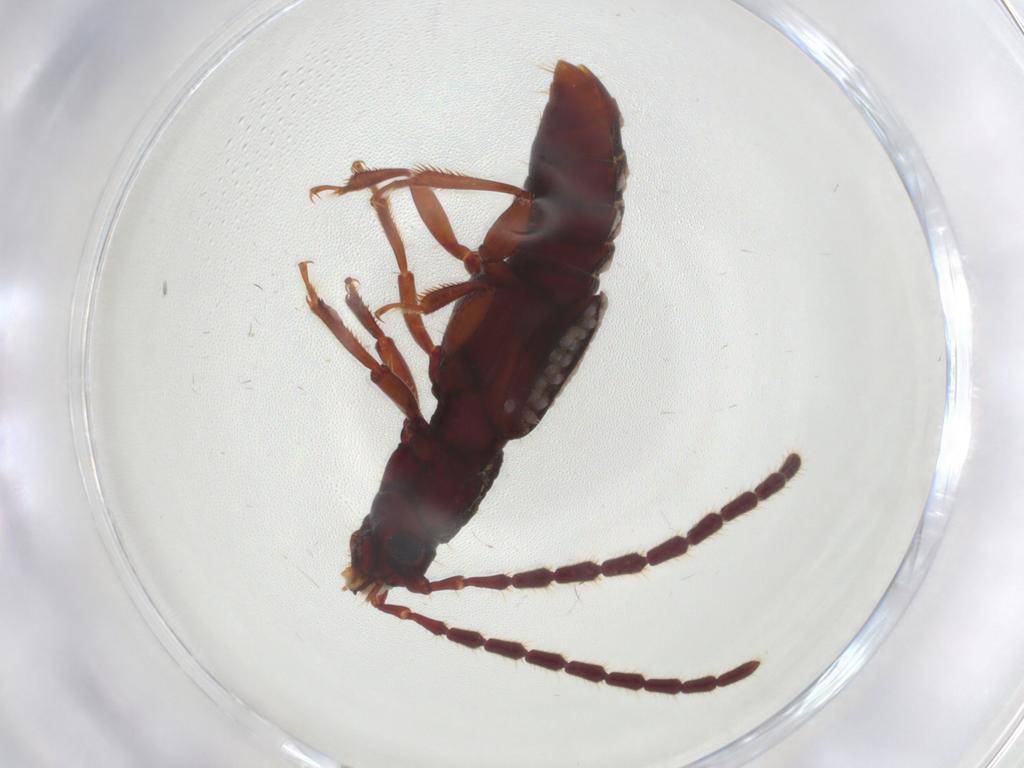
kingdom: Animalia
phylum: Arthropoda
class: Insecta
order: Coleoptera
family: Staphylinidae
